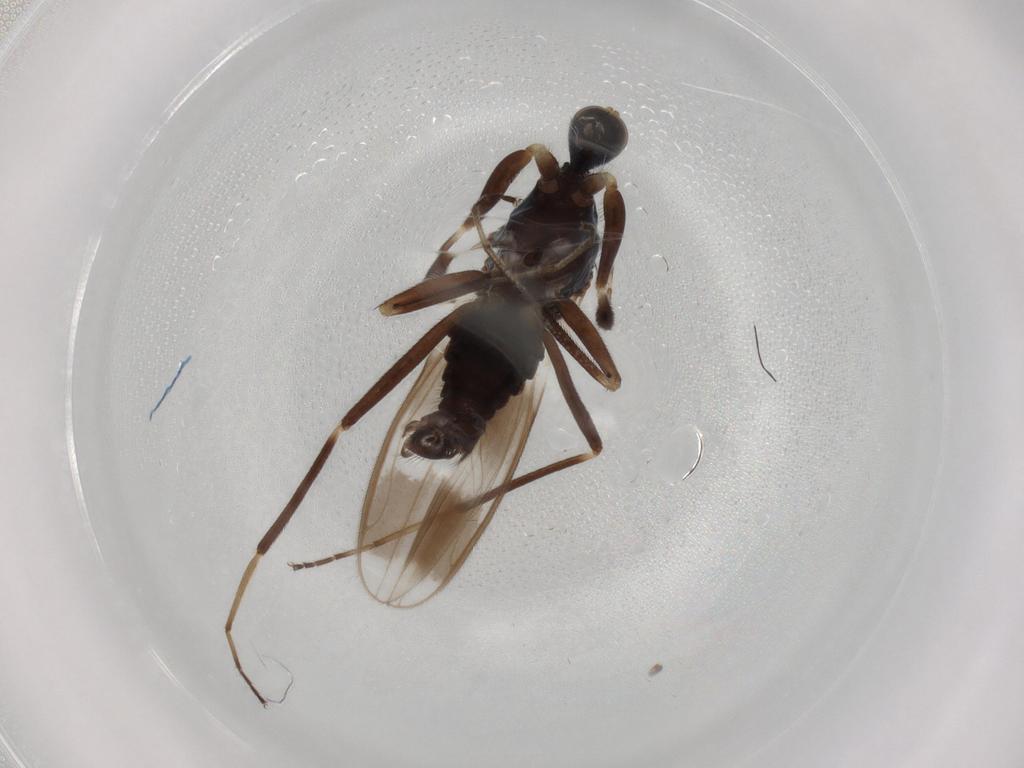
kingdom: Animalia
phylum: Arthropoda
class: Insecta
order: Diptera
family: Hybotidae
